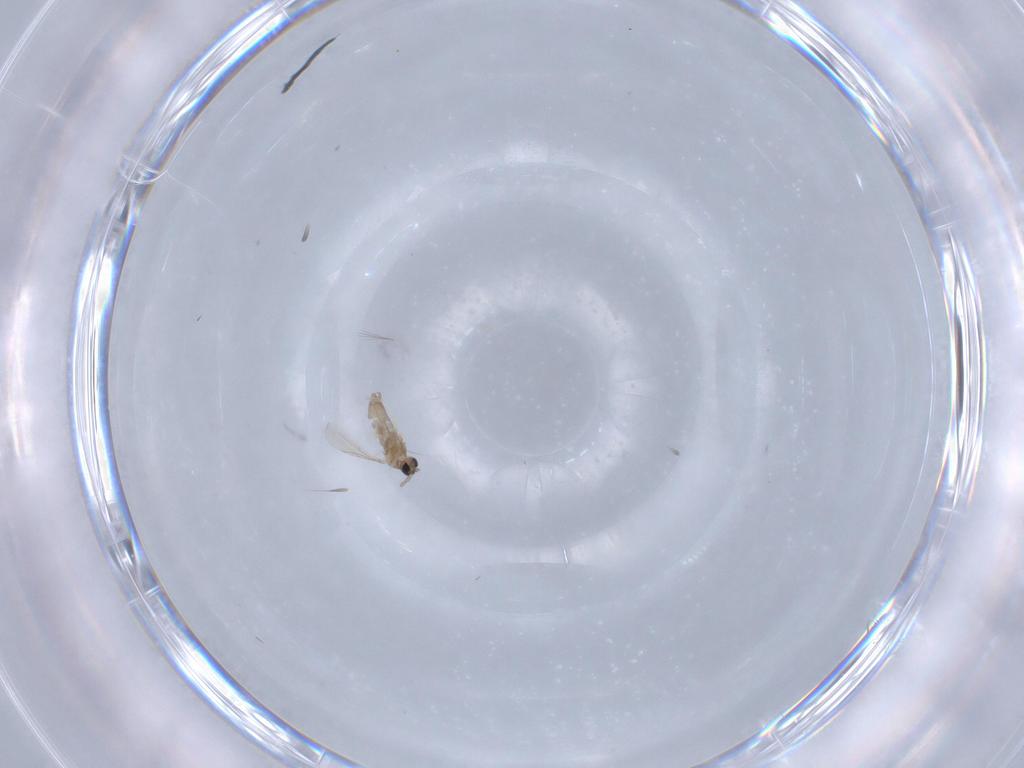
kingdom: Animalia
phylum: Arthropoda
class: Insecta
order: Diptera
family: Cecidomyiidae
